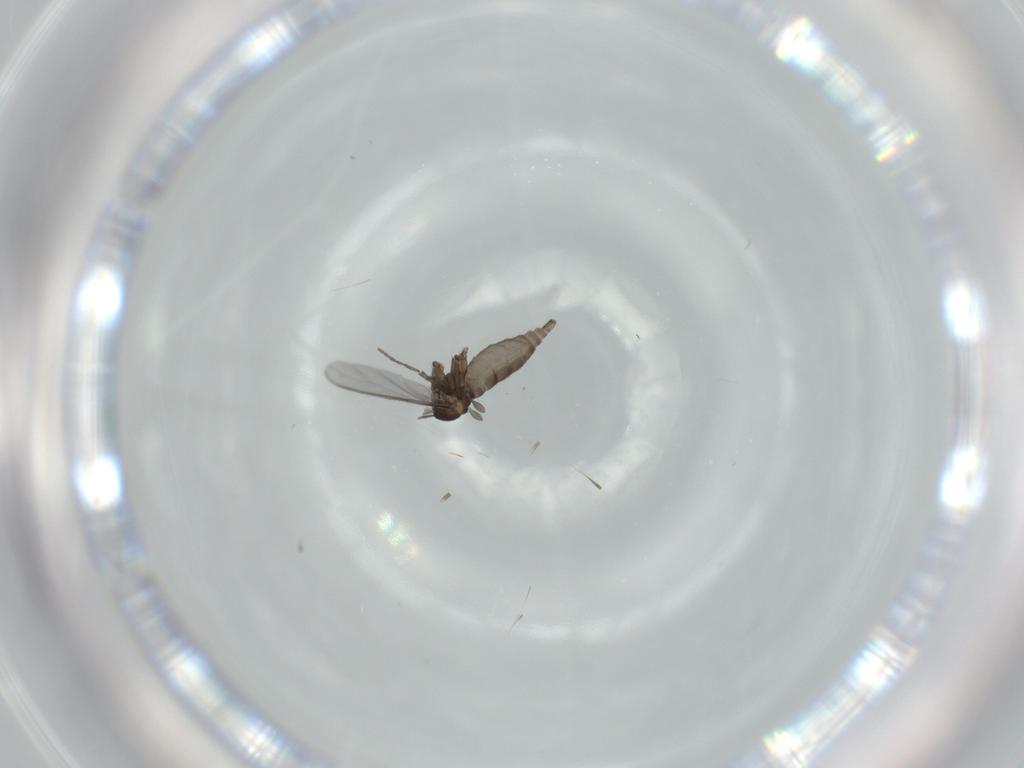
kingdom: Animalia
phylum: Arthropoda
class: Insecta
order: Diptera
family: Sciaridae
